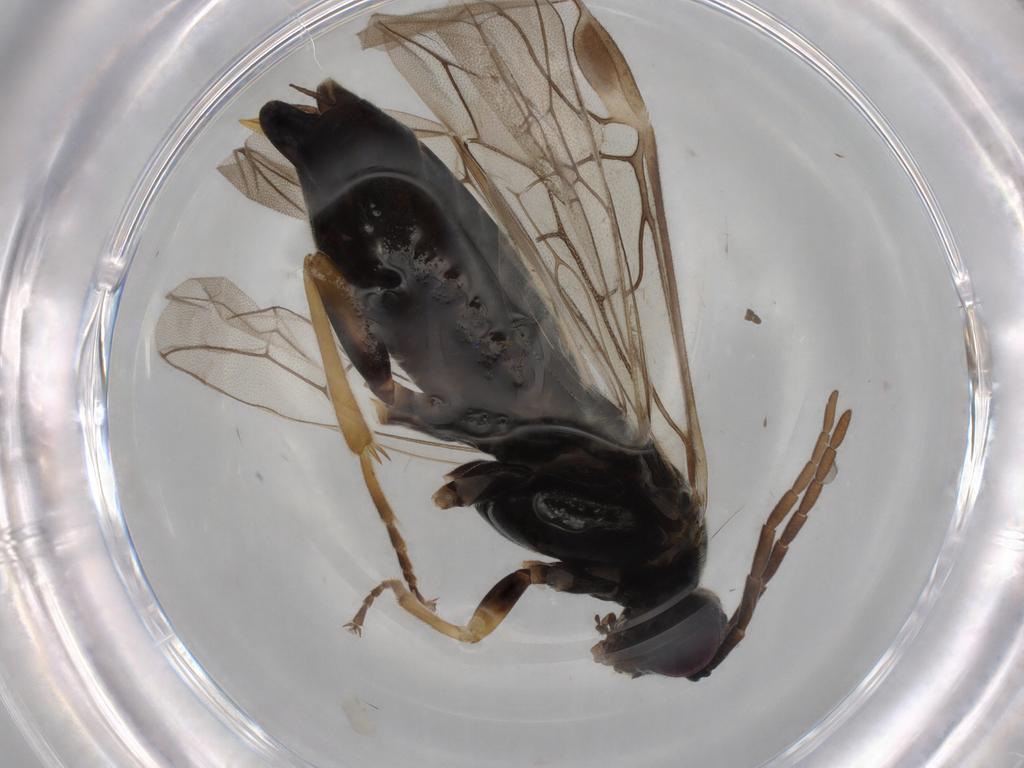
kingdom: Animalia
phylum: Arthropoda
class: Insecta
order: Hymenoptera
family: Vespidae
